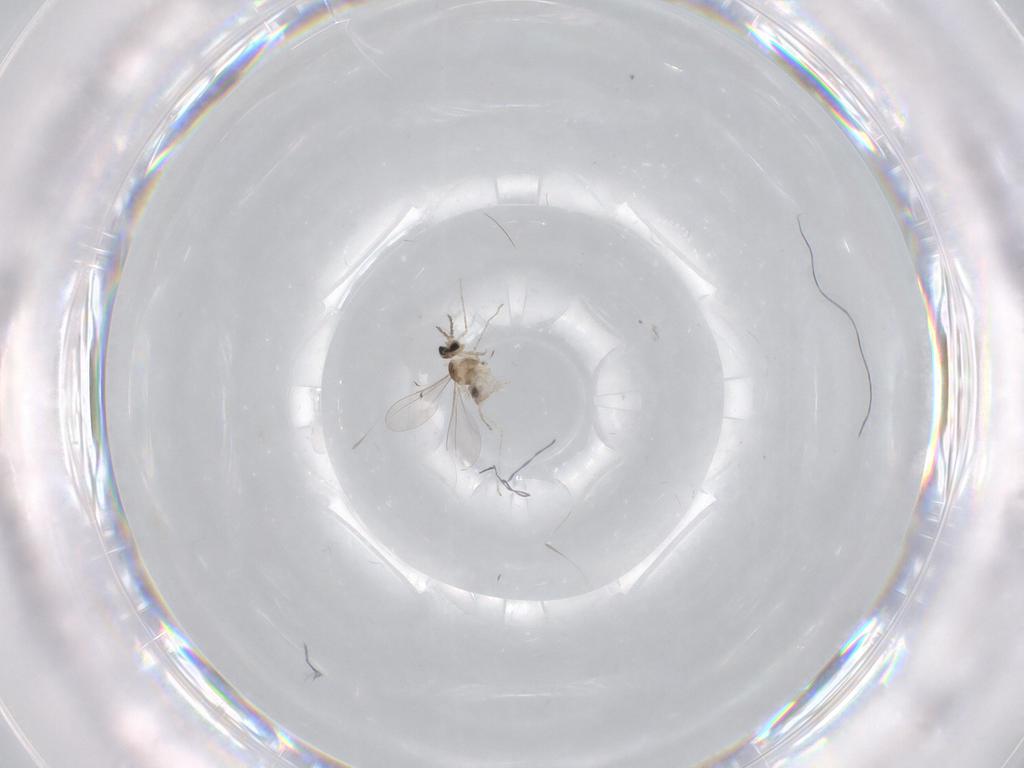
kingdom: Animalia
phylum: Arthropoda
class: Insecta
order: Diptera
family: Cecidomyiidae
